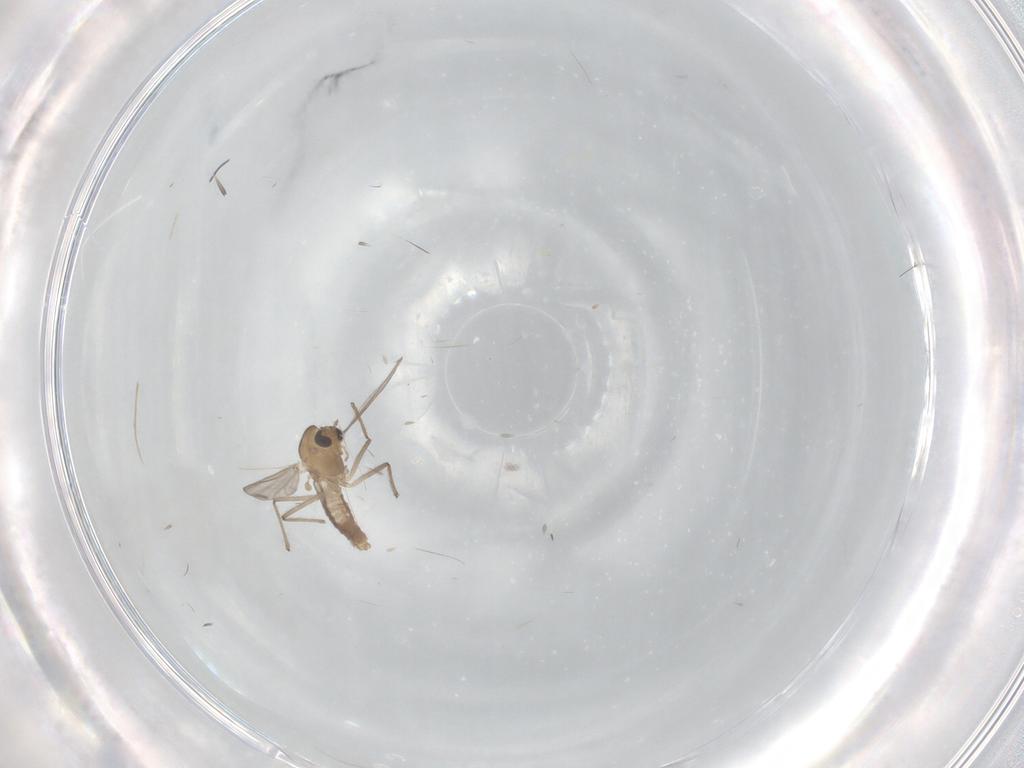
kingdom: Animalia
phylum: Arthropoda
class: Insecta
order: Diptera
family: Chironomidae
